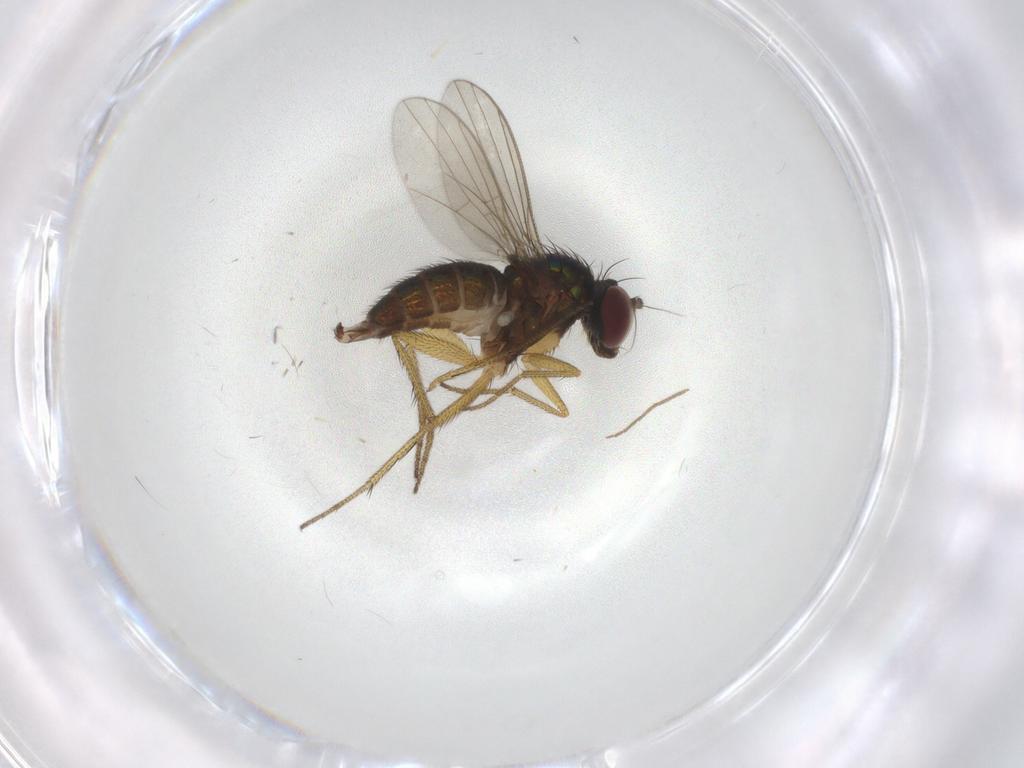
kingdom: Animalia
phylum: Arthropoda
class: Insecta
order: Diptera
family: Dolichopodidae
